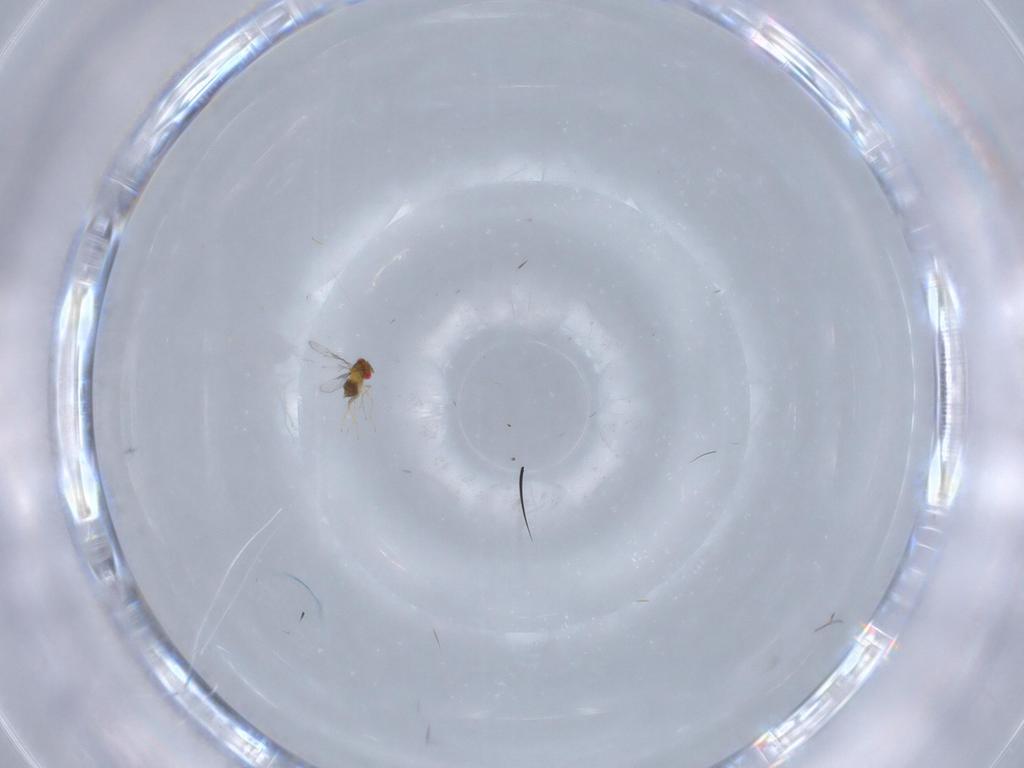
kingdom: Animalia
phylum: Arthropoda
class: Insecta
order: Hymenoptera
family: Trichogrammatidae
